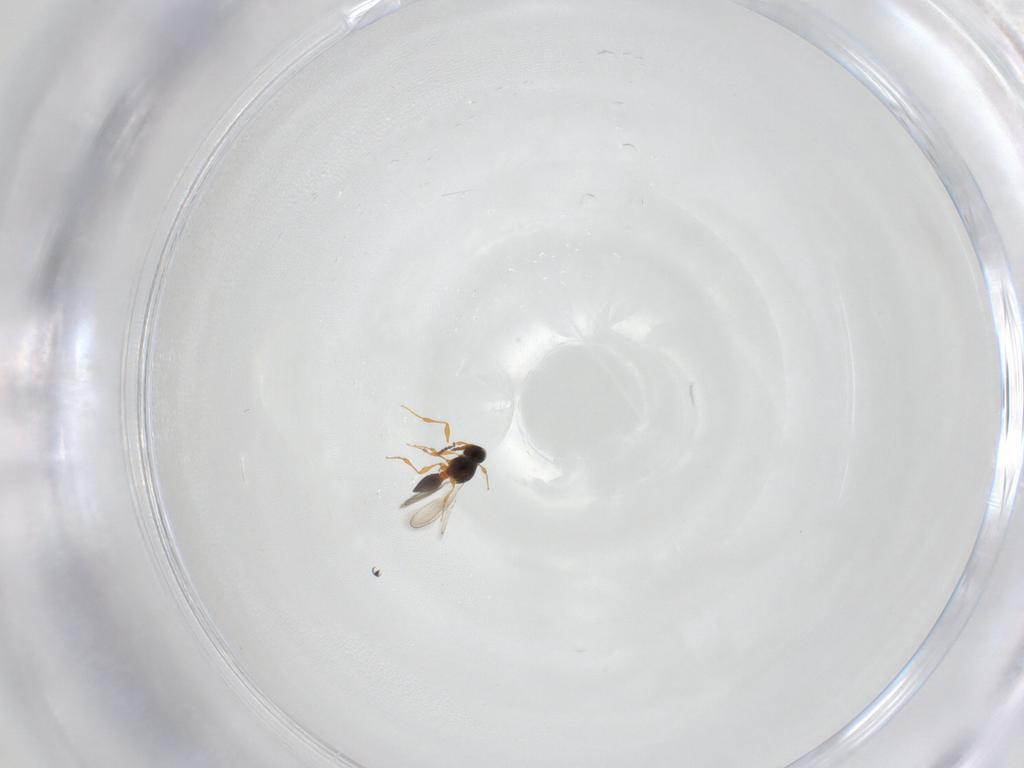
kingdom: Animalia
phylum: Arthropoda
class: Insecta
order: Hymenoptera
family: Platygastridae
